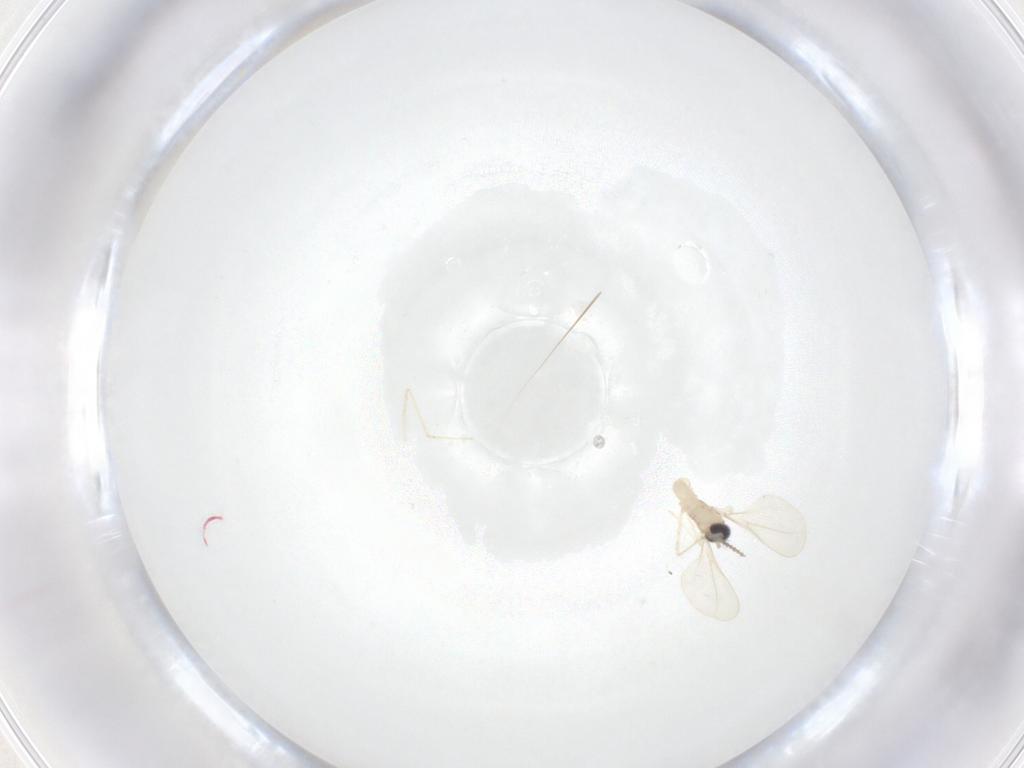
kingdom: Animalia
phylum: Arthropoda
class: Insecta
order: Diptera
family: Cecidomyiidae
